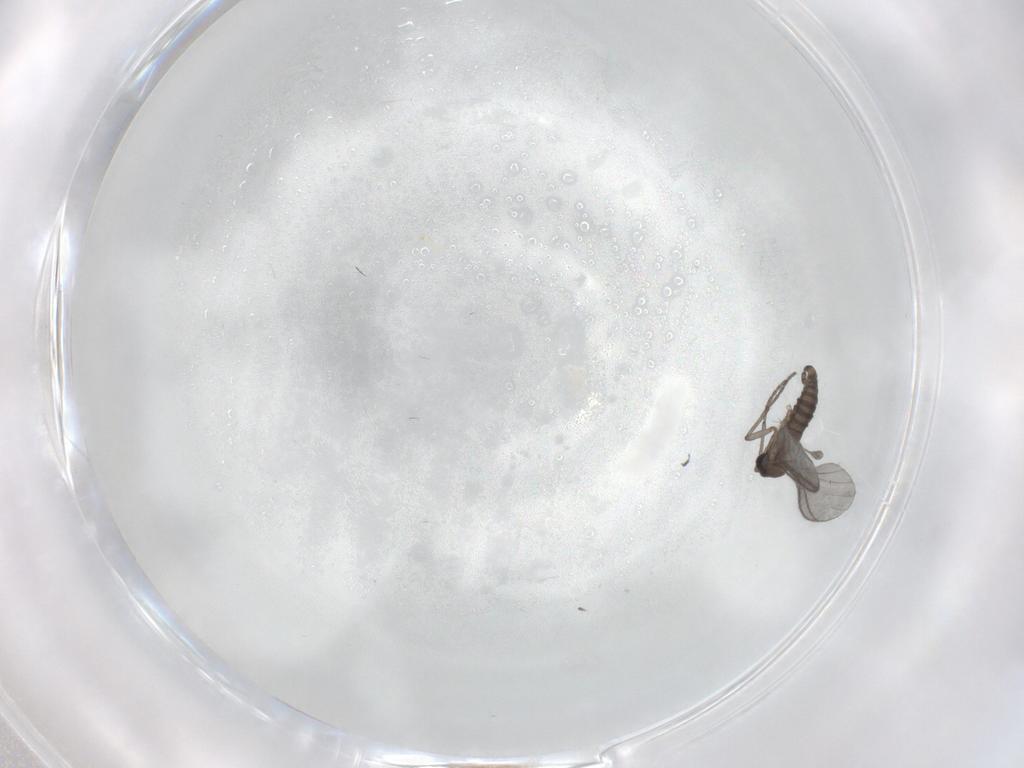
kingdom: Animalia
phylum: Arthropoda
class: Insecta
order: Diptera
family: Sciaridae
